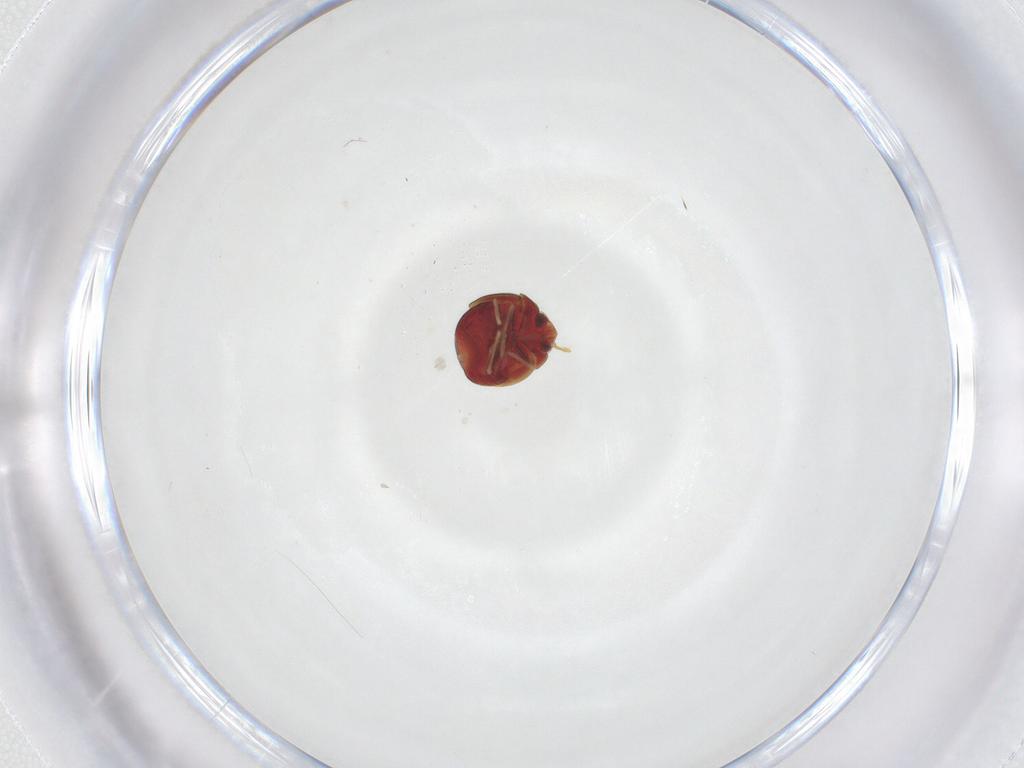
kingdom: Animalia
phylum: Arthropoda
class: Insecta
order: Hemiptera
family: Anthocoridae
